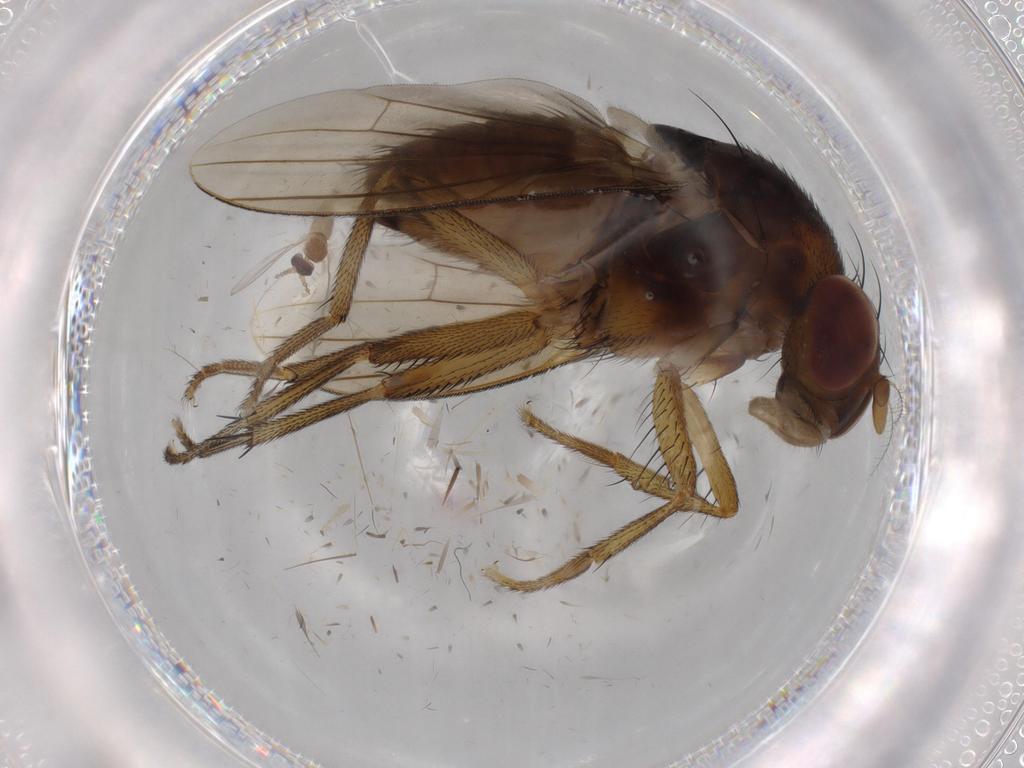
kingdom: Animalia
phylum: Arthropoda
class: Insecta
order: Diptera
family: Cecidomyiidae
